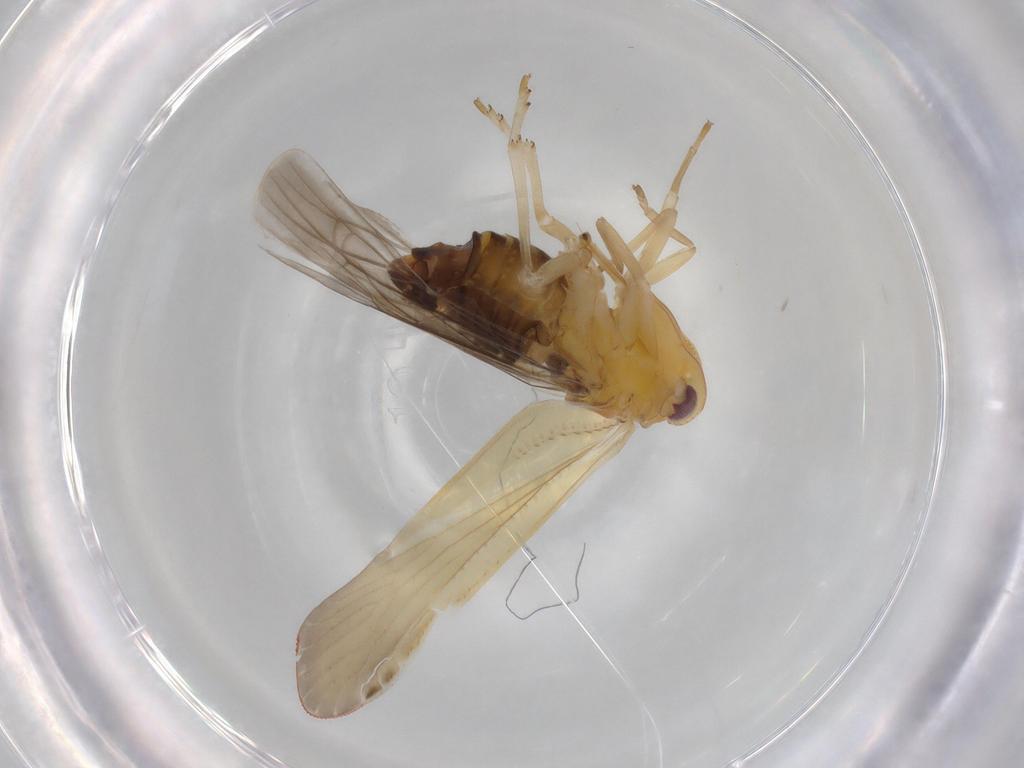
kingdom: Animalia
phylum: Arthropoda
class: Insecta
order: Hemiptera
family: Derbidae
